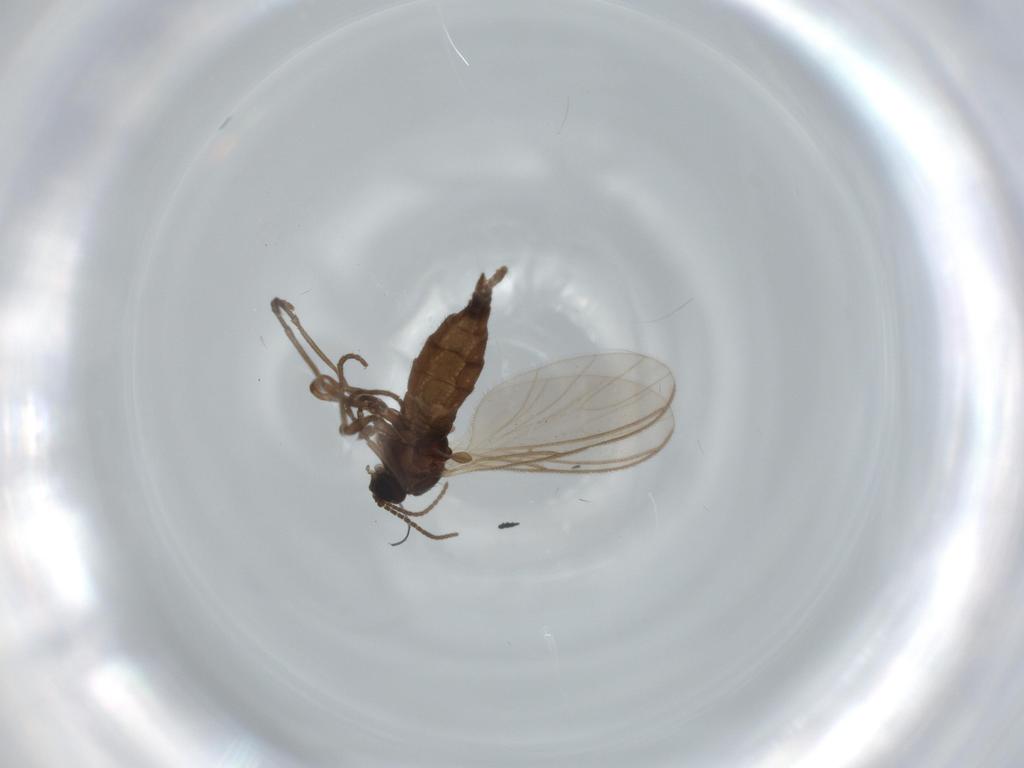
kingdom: Animalia
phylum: Arthropoda
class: Insecta
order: Diptera
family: Sciaridae
